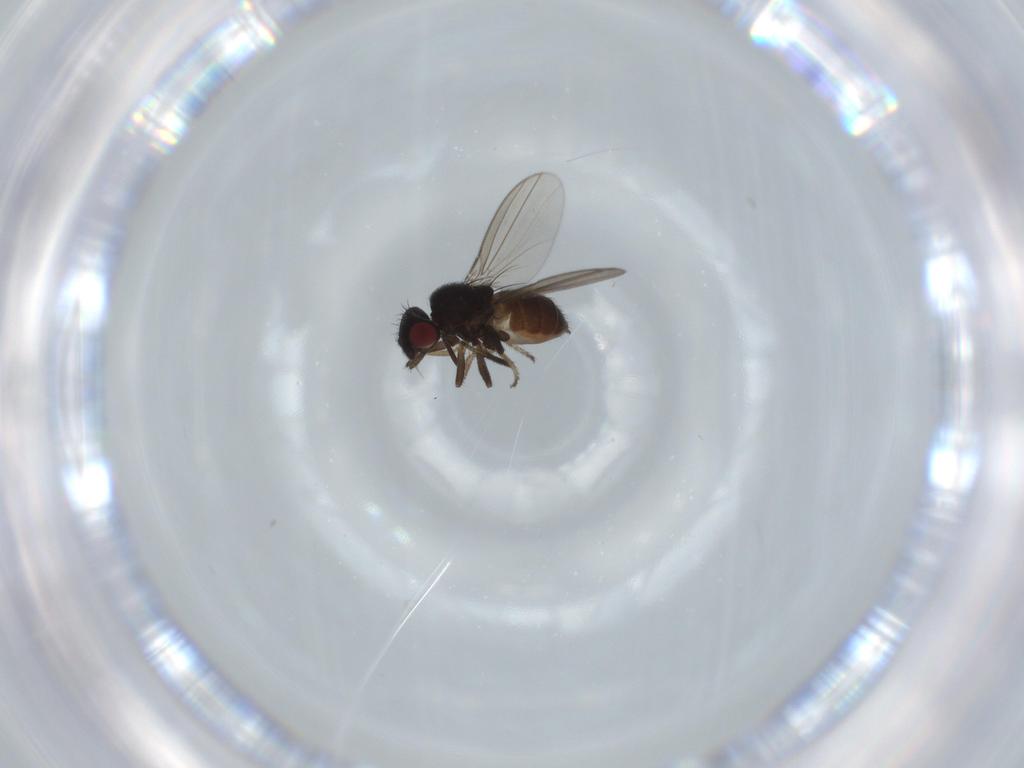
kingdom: Animalia
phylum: Arthropoda
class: Insecta
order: Diptera
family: Milichiidae
